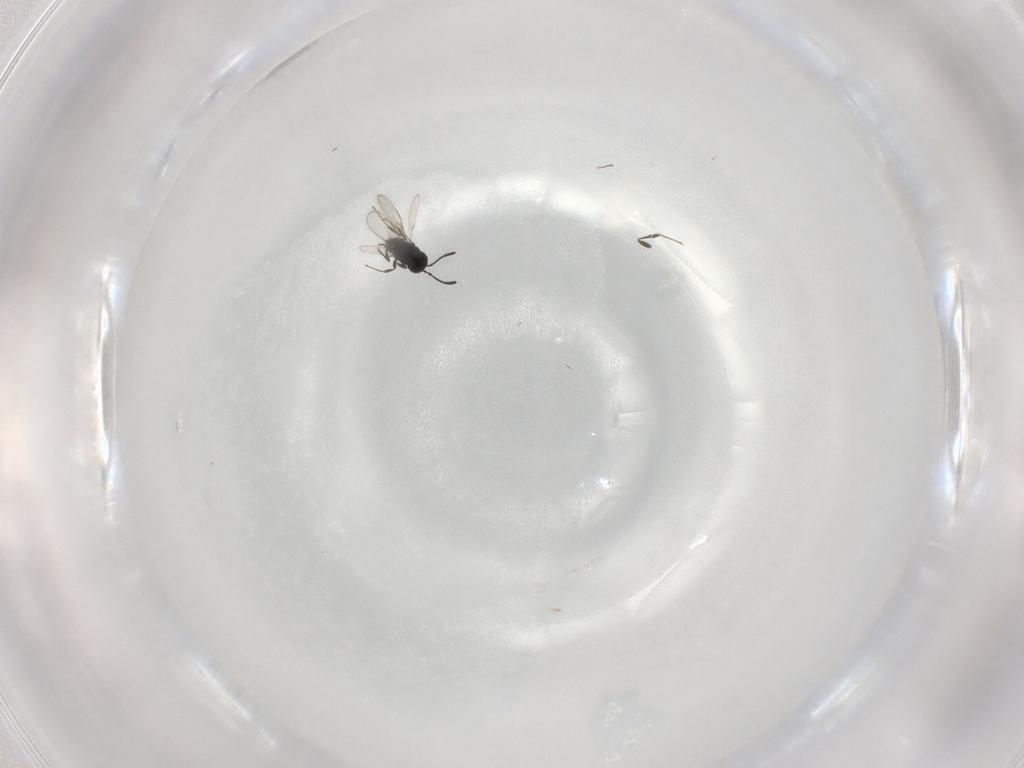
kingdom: Animalia
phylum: Arthropoda
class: Insecta
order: Hymenoptera
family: Scelionidae
